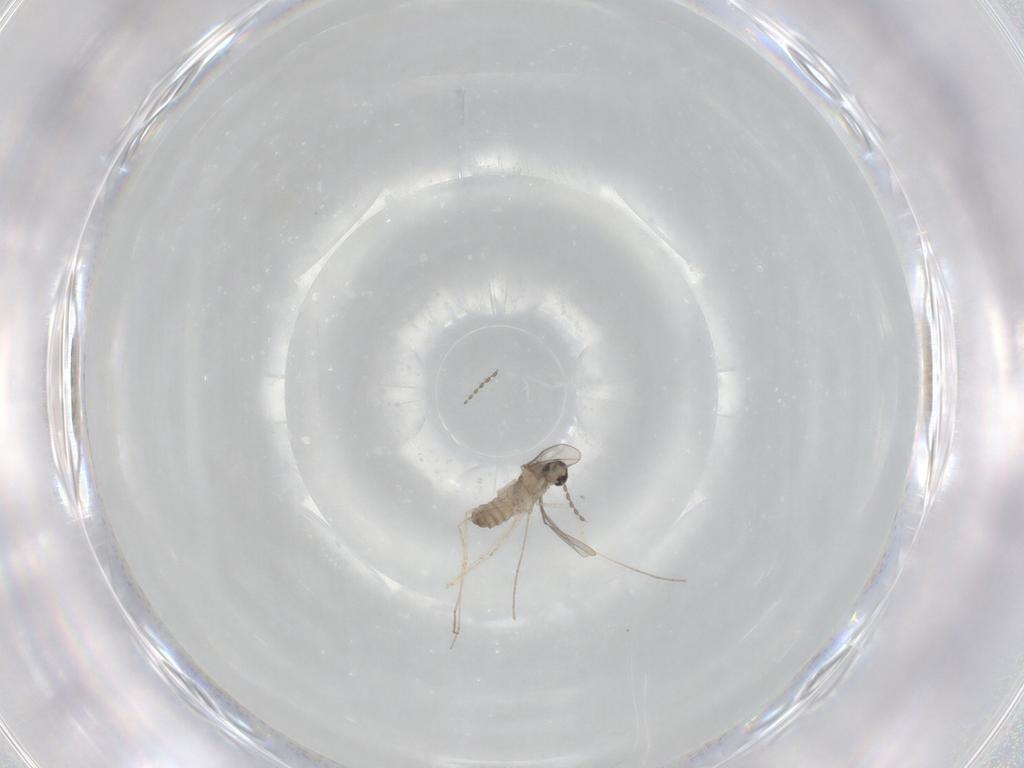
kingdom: Animalia
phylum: Arthropoda
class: Insecta
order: Diptera
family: Cecidomyiidae
